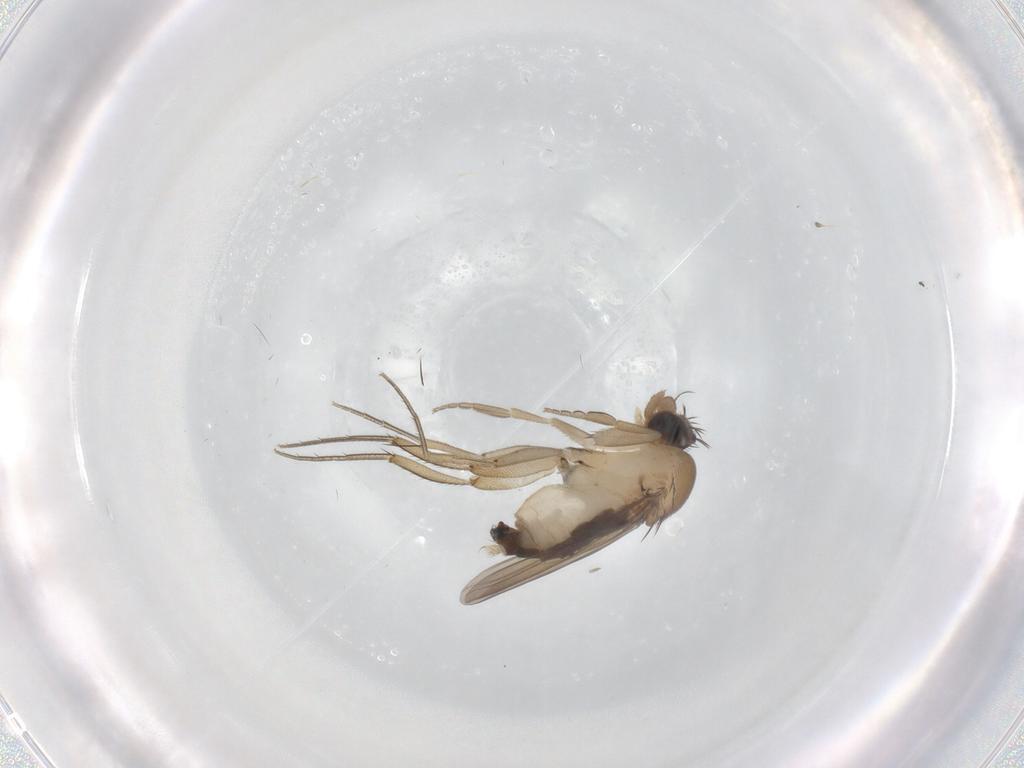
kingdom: Animalia
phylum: Arthropoda
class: Insecta
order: Diptera
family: Phoridae
